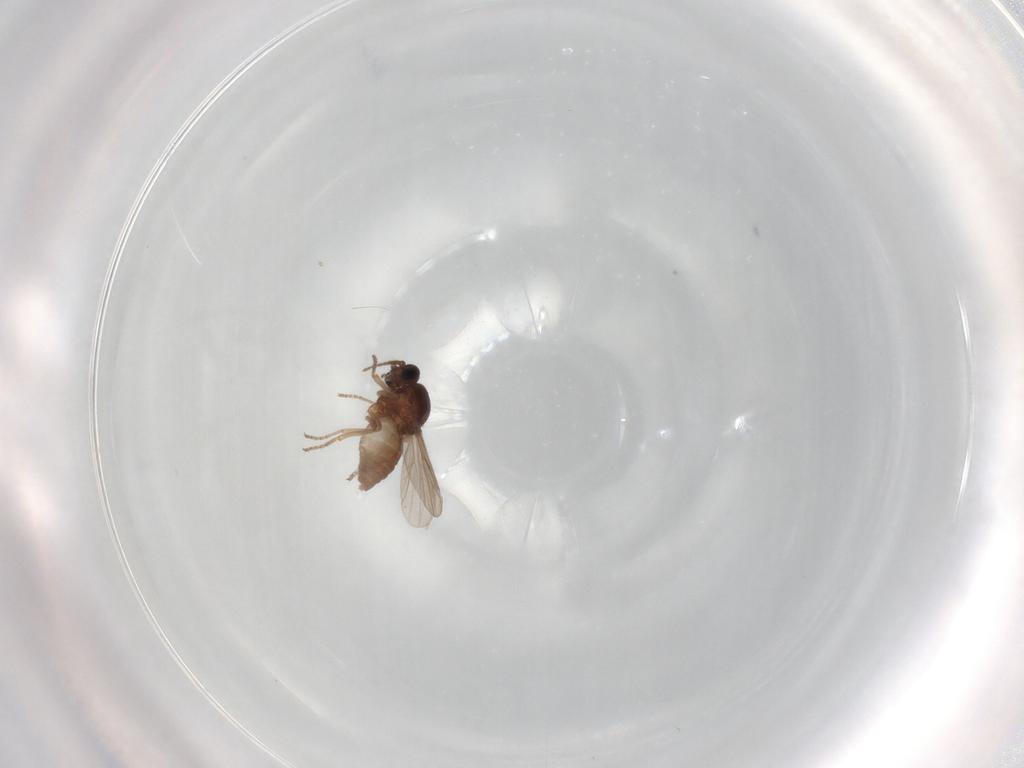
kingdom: Animalia
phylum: Arthropoda
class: Insecta
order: Diptera
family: Ceratopogonidae
